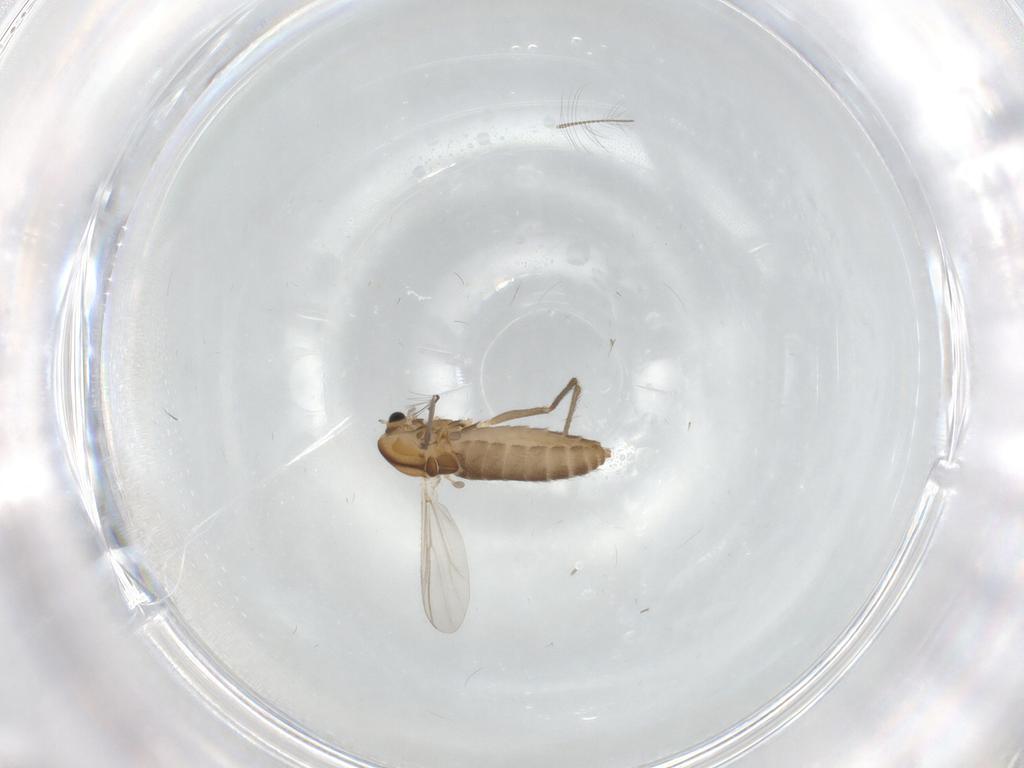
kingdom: Animalia
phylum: Arthropoda
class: Insecta
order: Diptera
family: Chironomidae
